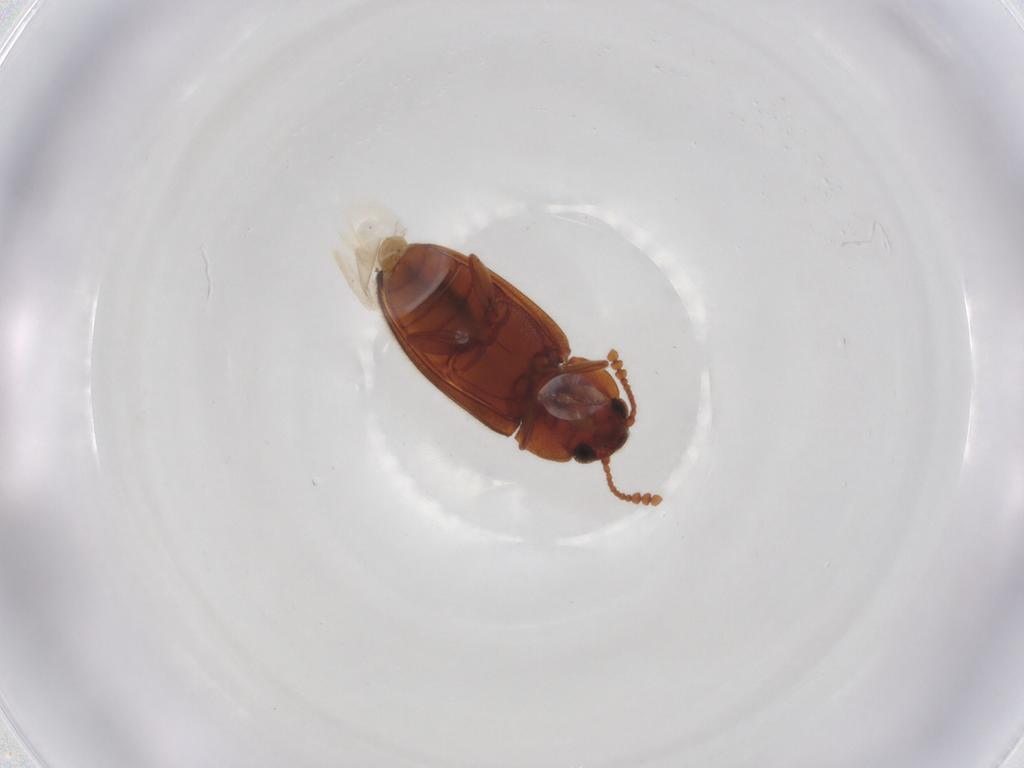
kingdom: Animalia
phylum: Arthropoda
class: Insecta
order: Coleoptera
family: Erotylidae
